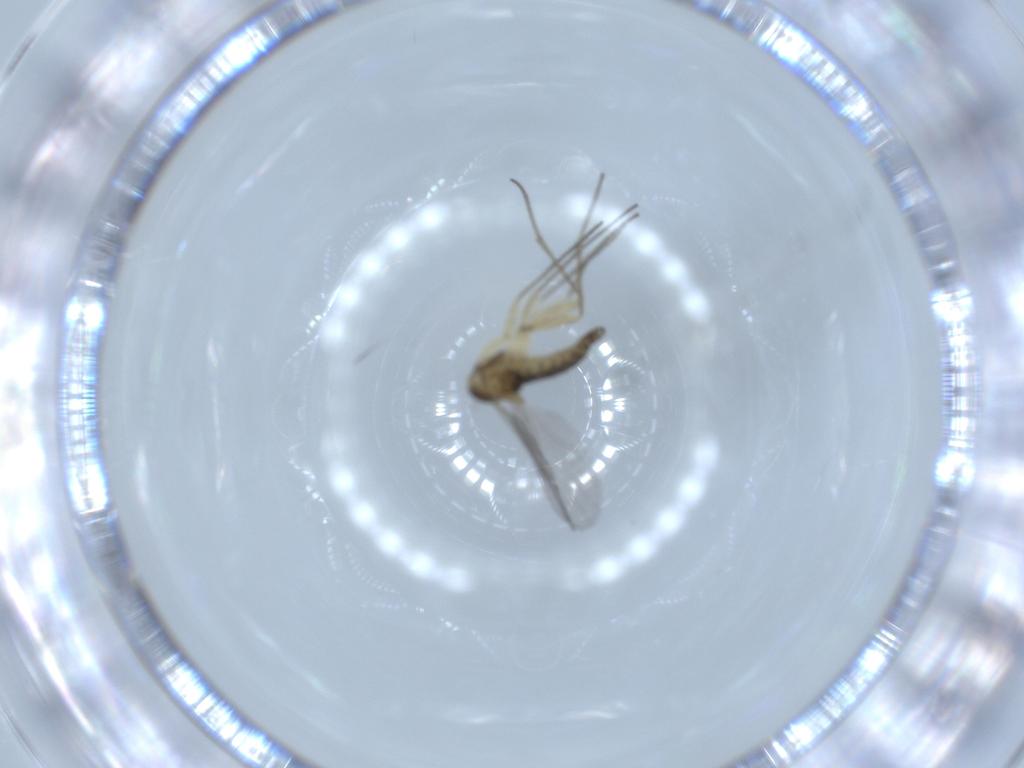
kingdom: Animalia
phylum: Arthropoda
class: Insecta
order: Diptera
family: Sciaridae
